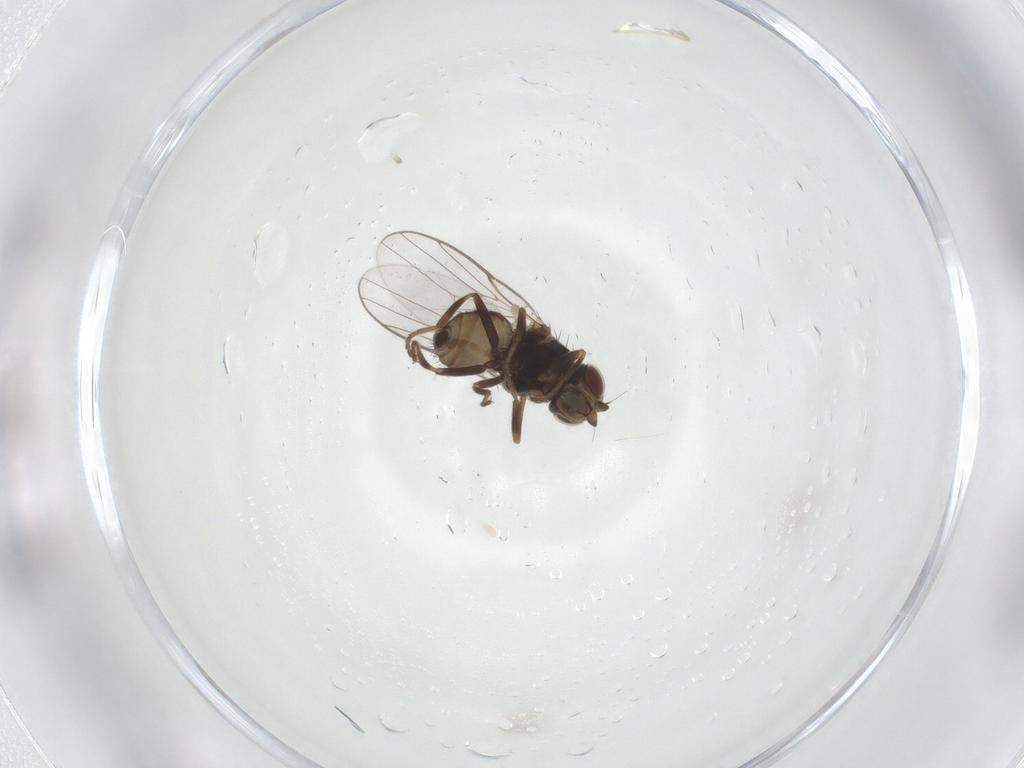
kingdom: Animalia
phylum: Arthropoda
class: Insecta
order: Diptera
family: Chloropidae
